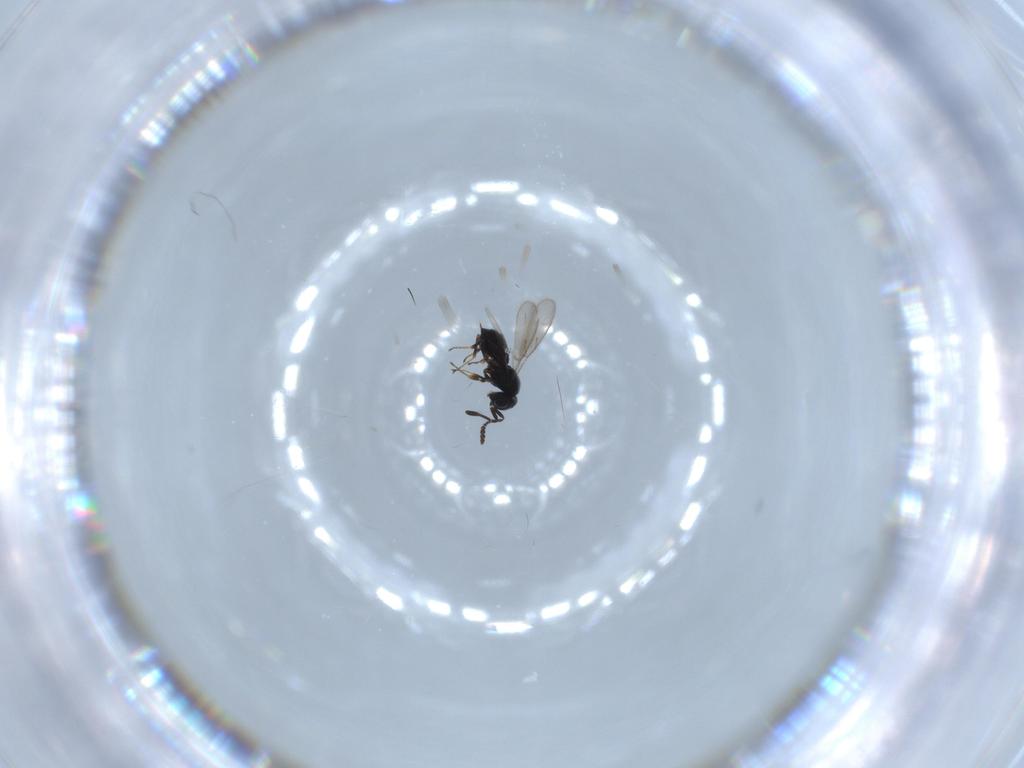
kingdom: Animalia
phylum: Arthropoda
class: Insecta
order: Hymenoptera
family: Scelionidae
